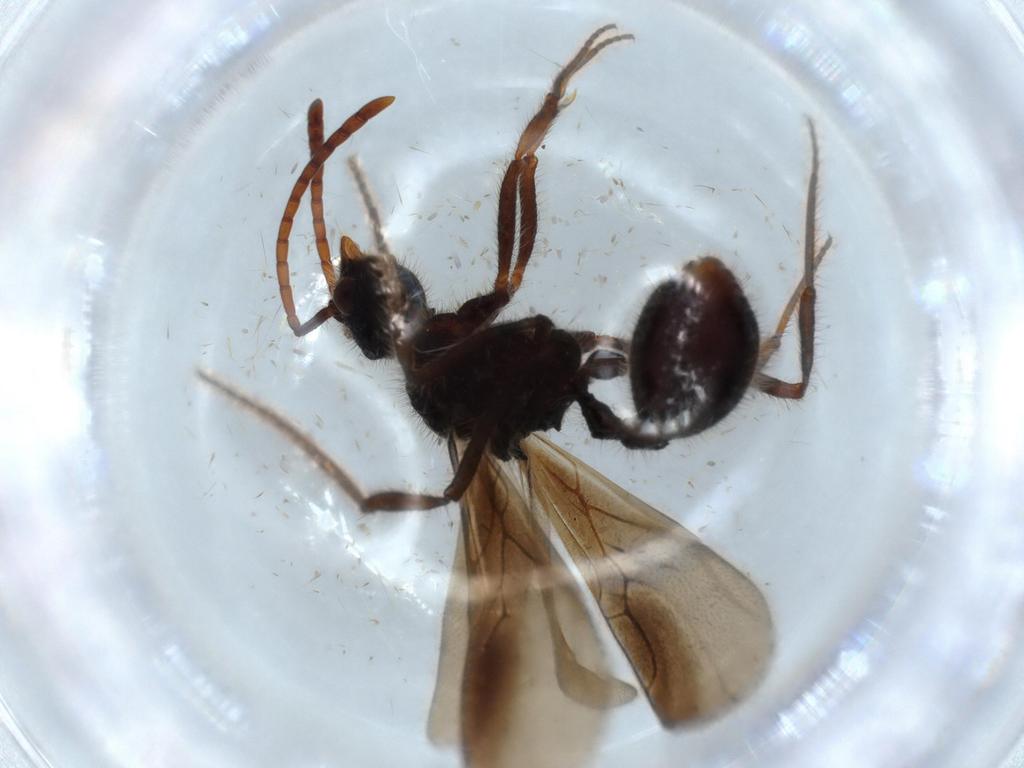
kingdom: Animalia
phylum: Arthropoda
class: Insecta
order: Hymenoptera
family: Formicidae
